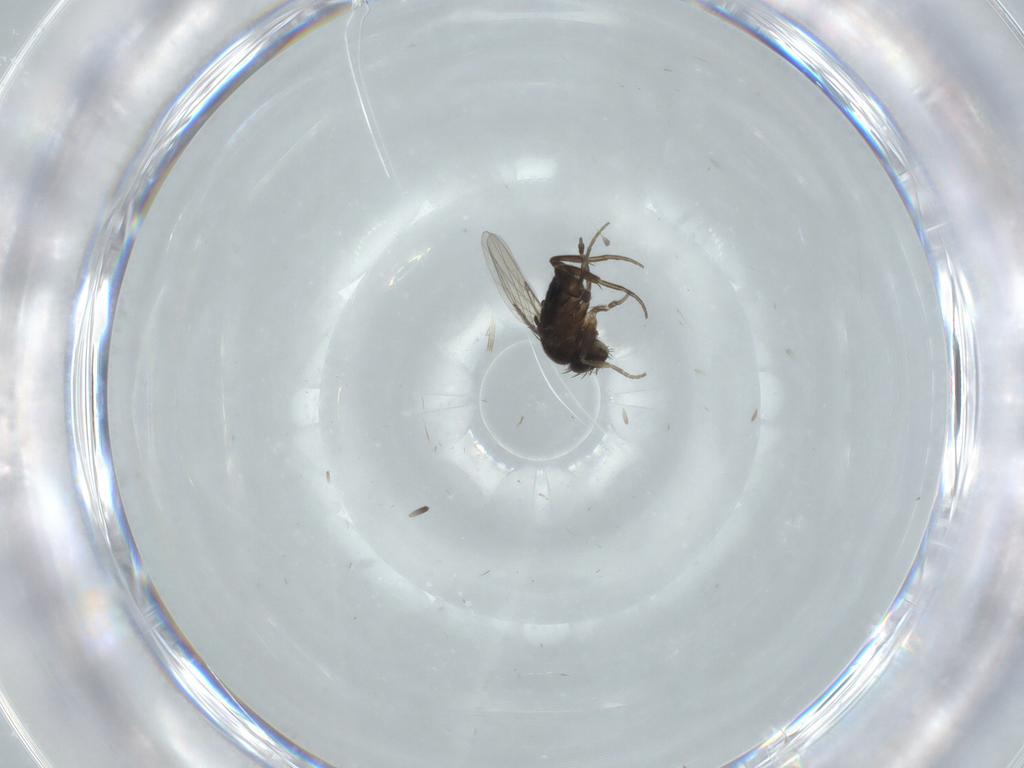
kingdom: Animalia
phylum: Arthropoda
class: Insecta
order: Diptera
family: Phoridae
